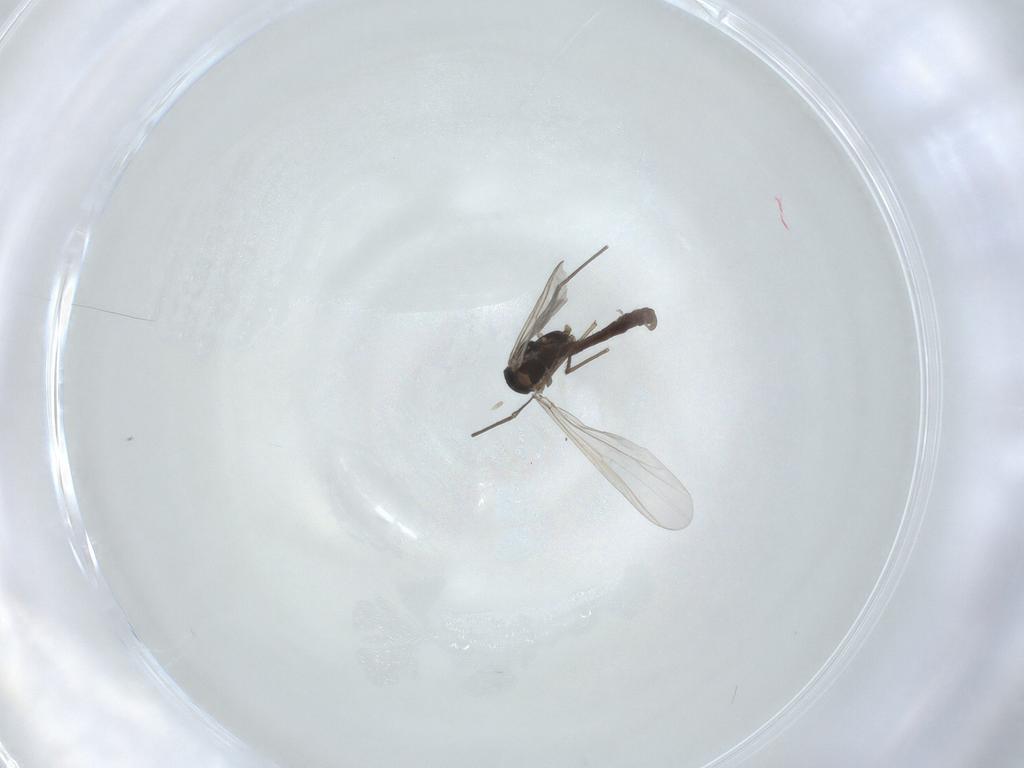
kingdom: Animalia
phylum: Arthropoda
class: Insecta
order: Diptera
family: Chironomidae
